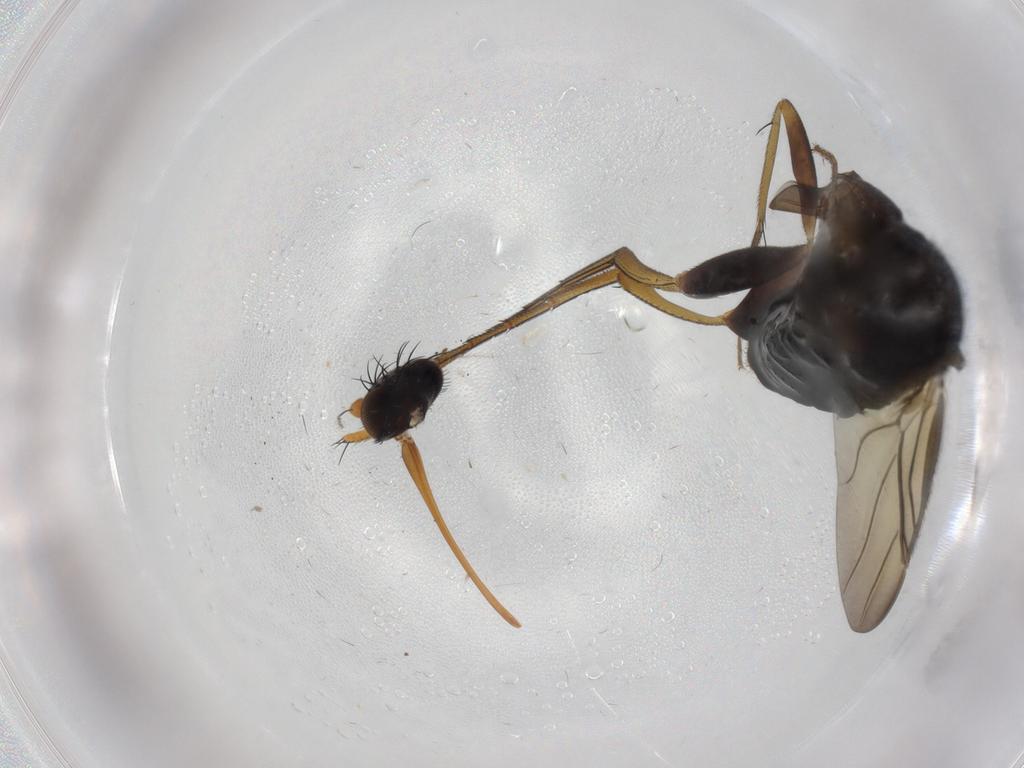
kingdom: Animalia
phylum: Arthropoda
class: Insecta
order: Diptera
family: Phoridae
